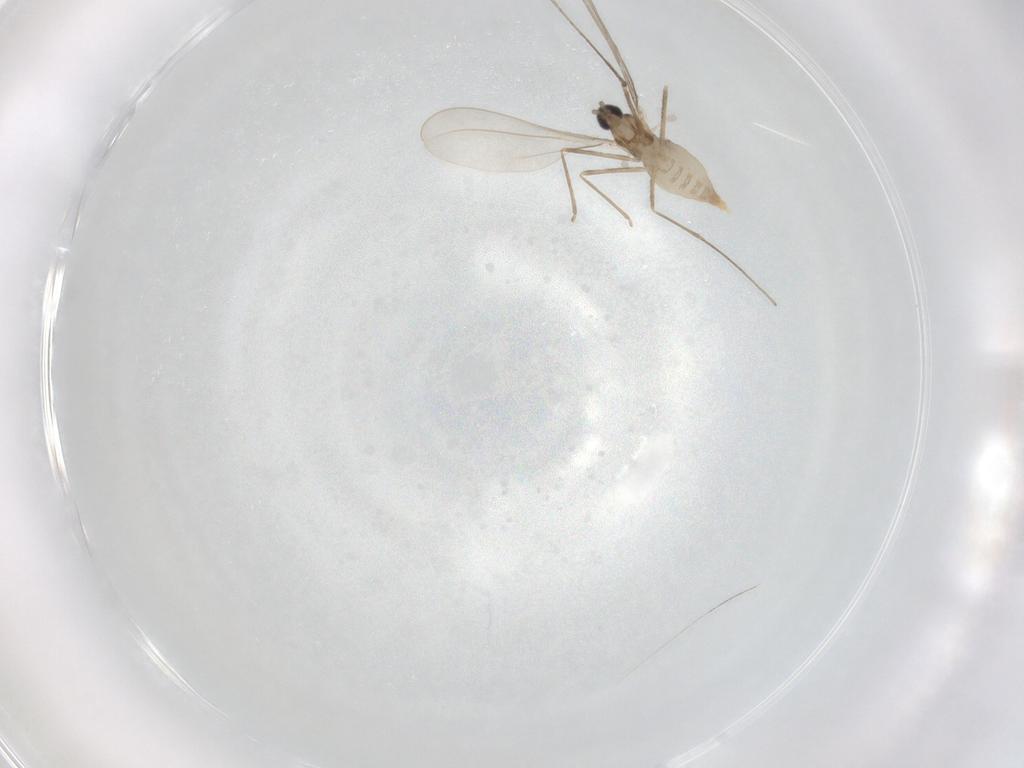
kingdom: Animalia
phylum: Arthropoda
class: Insecta
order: Diptera
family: Cecidomyiidae
